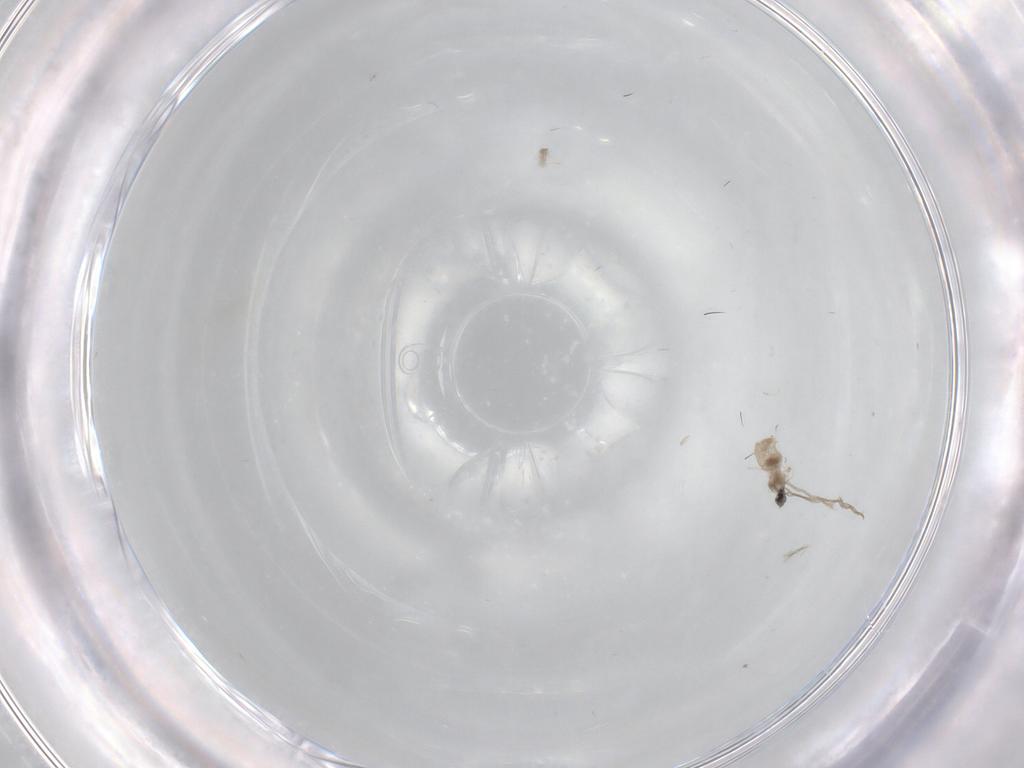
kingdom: Animalia
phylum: Arthropoda
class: Insecta
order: Diptera
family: Cecidomyiidae
